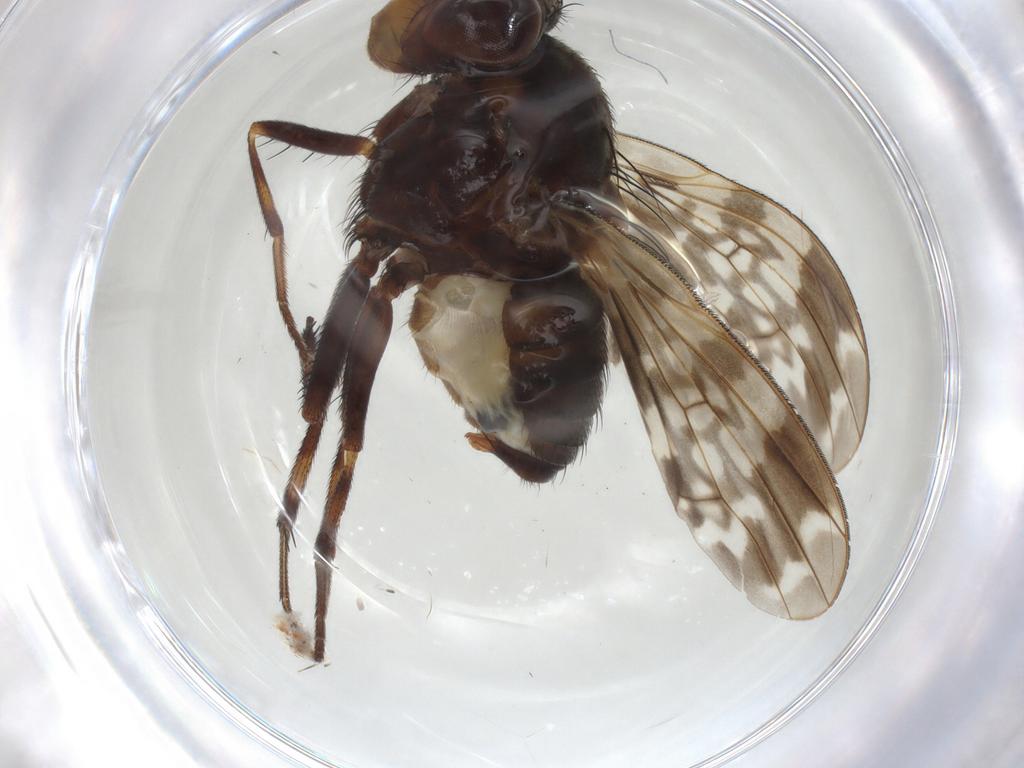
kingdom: Animalia
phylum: Arthropoda
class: Insecta
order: Diptera
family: Lauxaniidae
